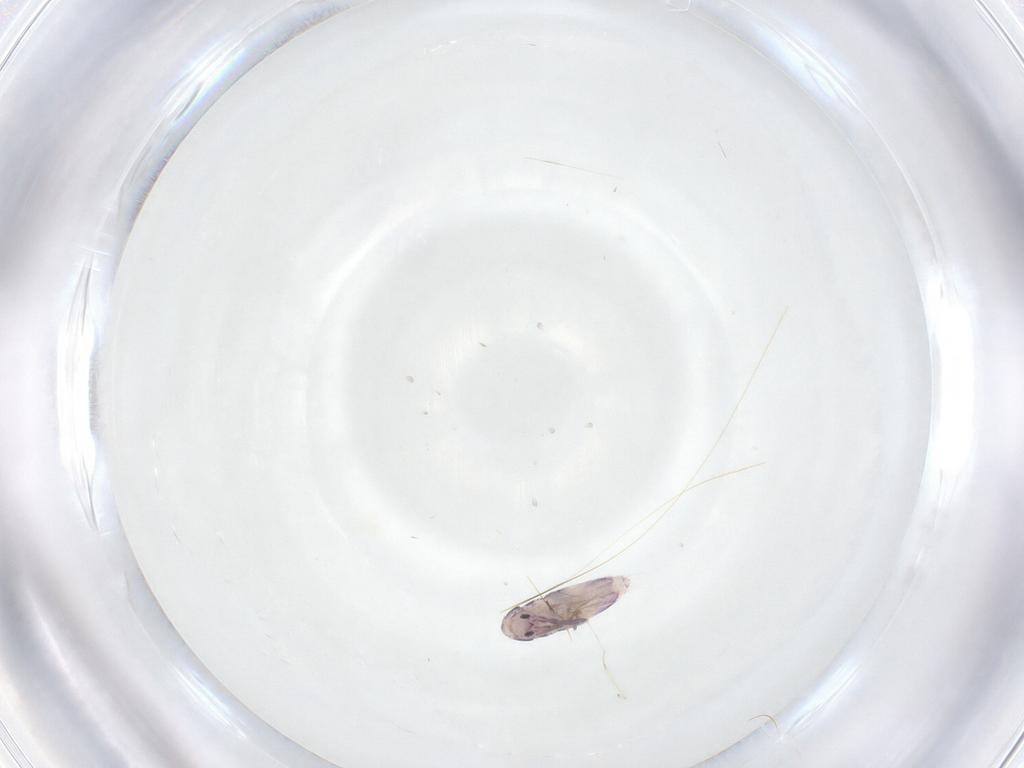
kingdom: Animalia
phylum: Arthropoda
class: Collembola
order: Entomobryomorpha
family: Entomobryidae
